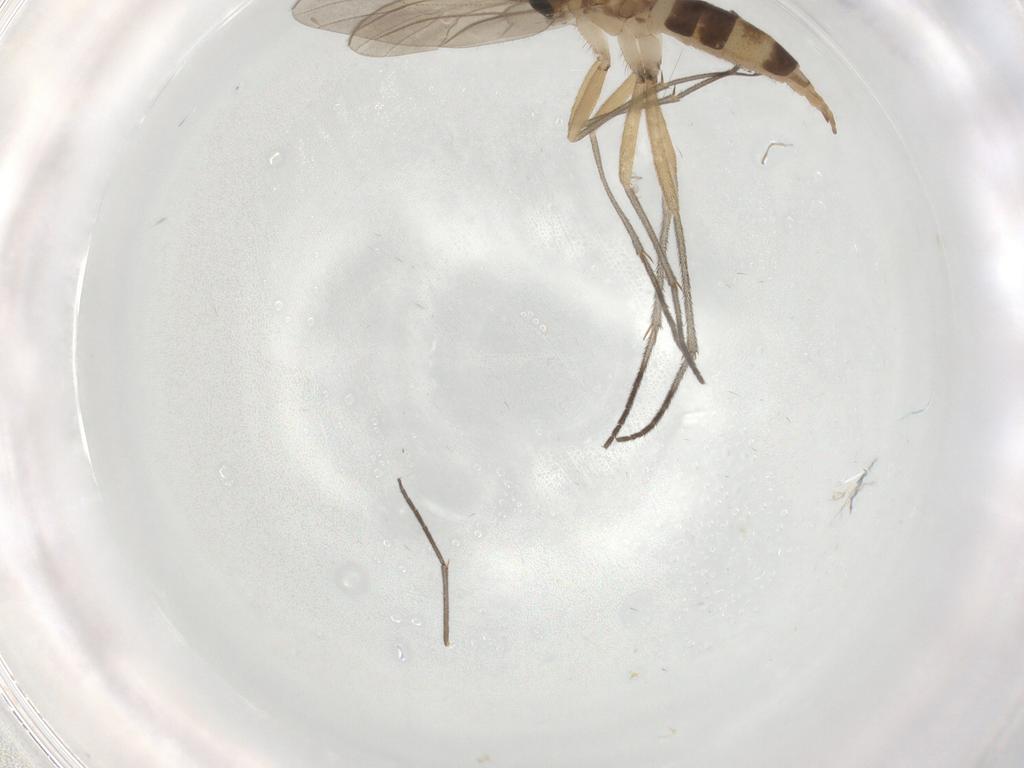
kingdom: Animalia
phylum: Arthropoda
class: Insecta
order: Diptera
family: Sciaridae
